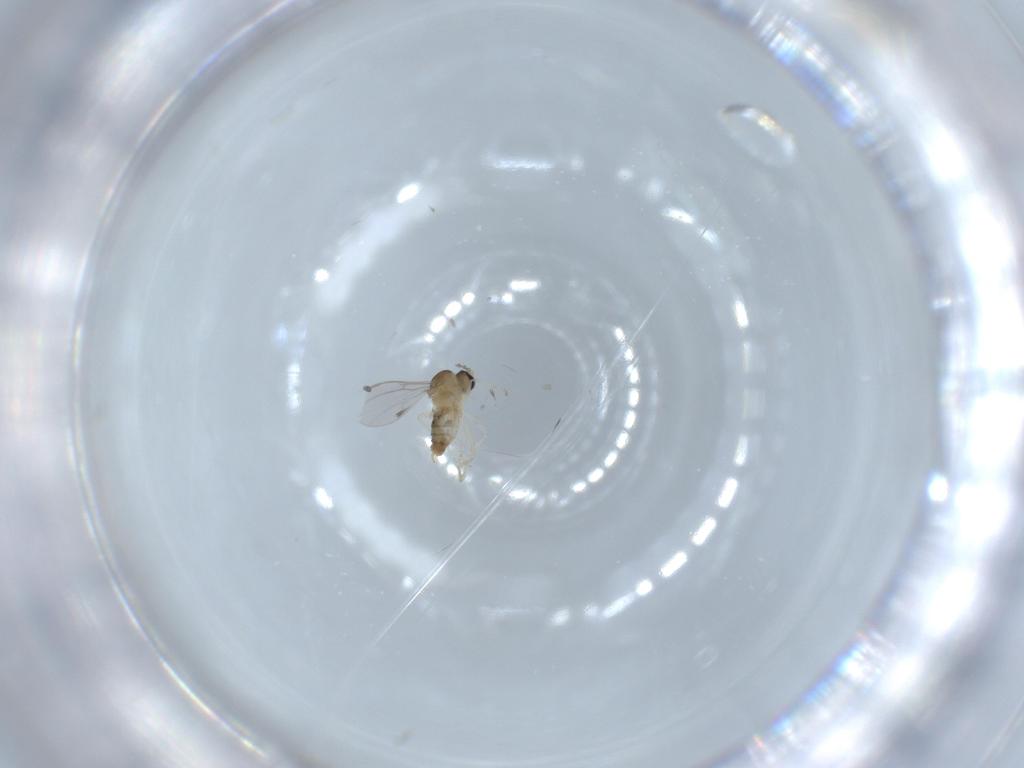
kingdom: Animalia
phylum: Arthropoda
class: Insecta
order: Diptera
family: Cecidomyiidae
